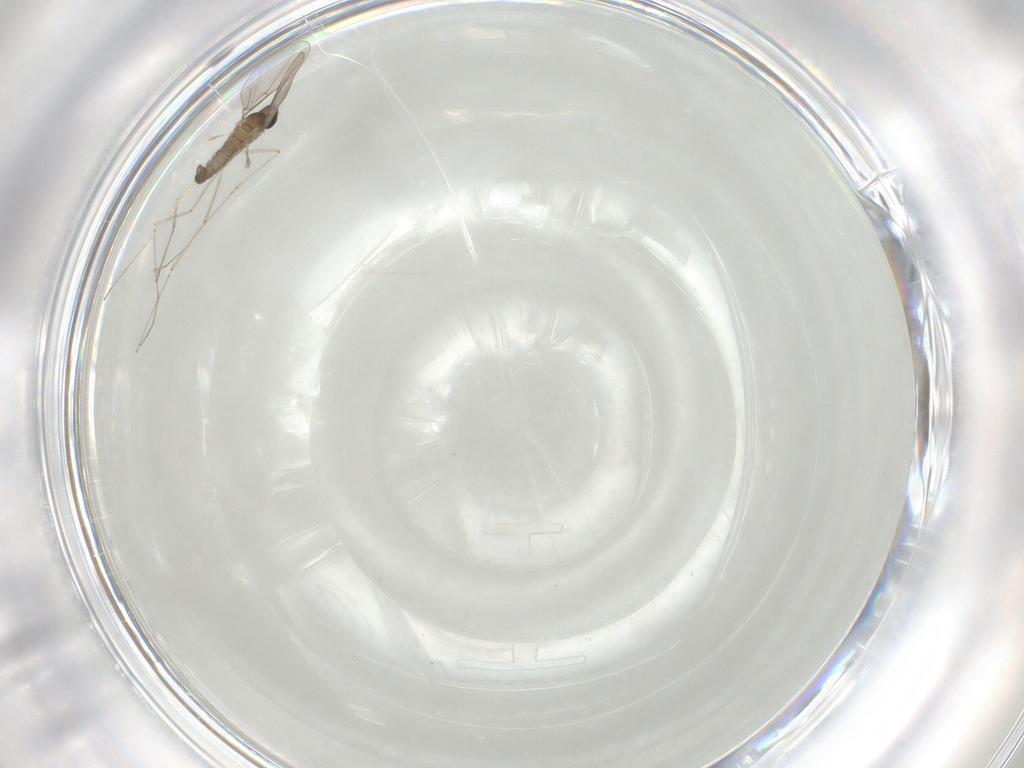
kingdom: Animalia
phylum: Arthropoda
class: Insecta
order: Diptera
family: Cecidomyiidae
